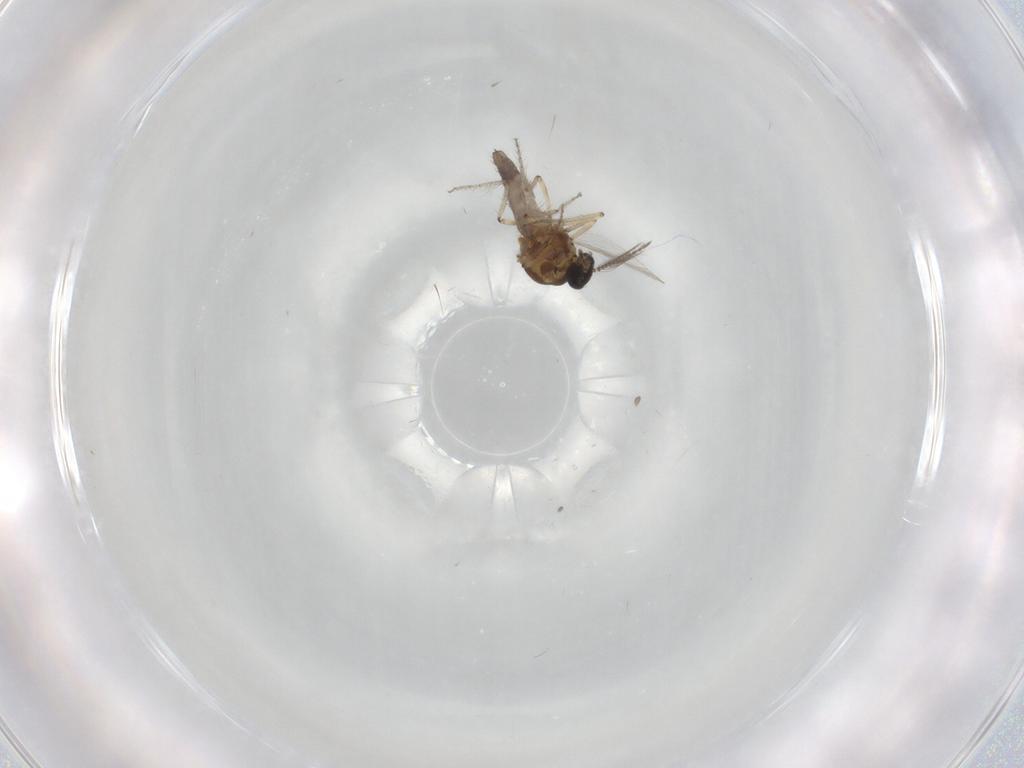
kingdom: Animalia
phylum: Arthropoda
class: Insecta
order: Diptera
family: Ceratopogonidae
